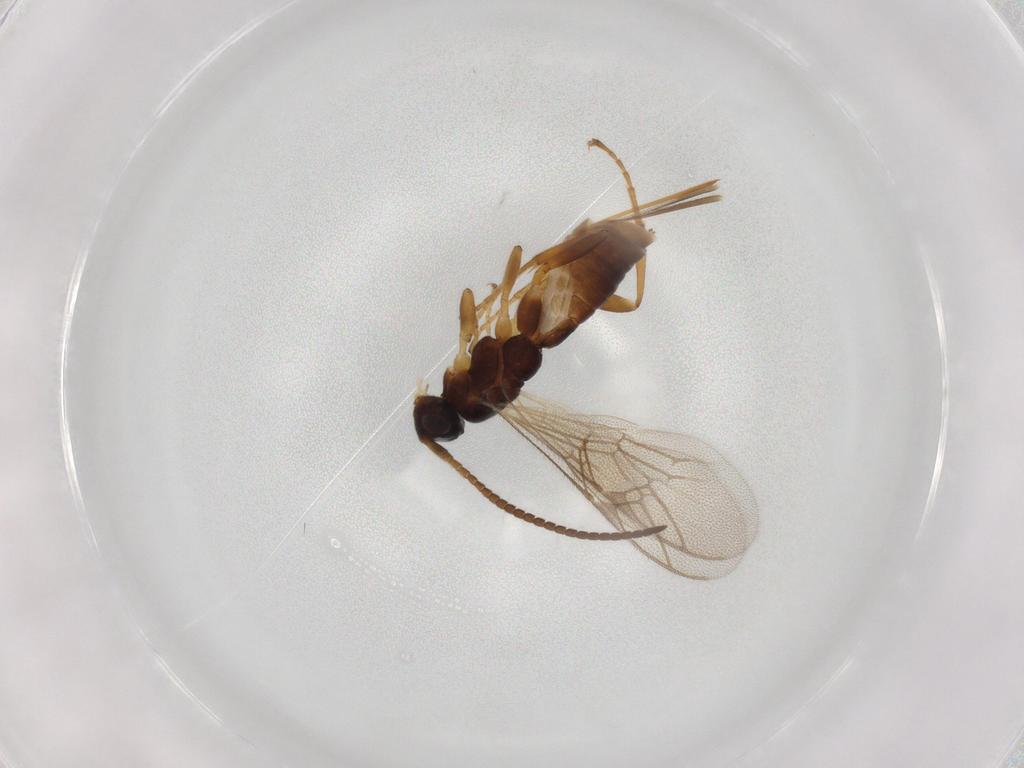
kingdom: Animalia
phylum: Arthropoda
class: Insecta
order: Hymenoptera
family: Ichneumonidae
